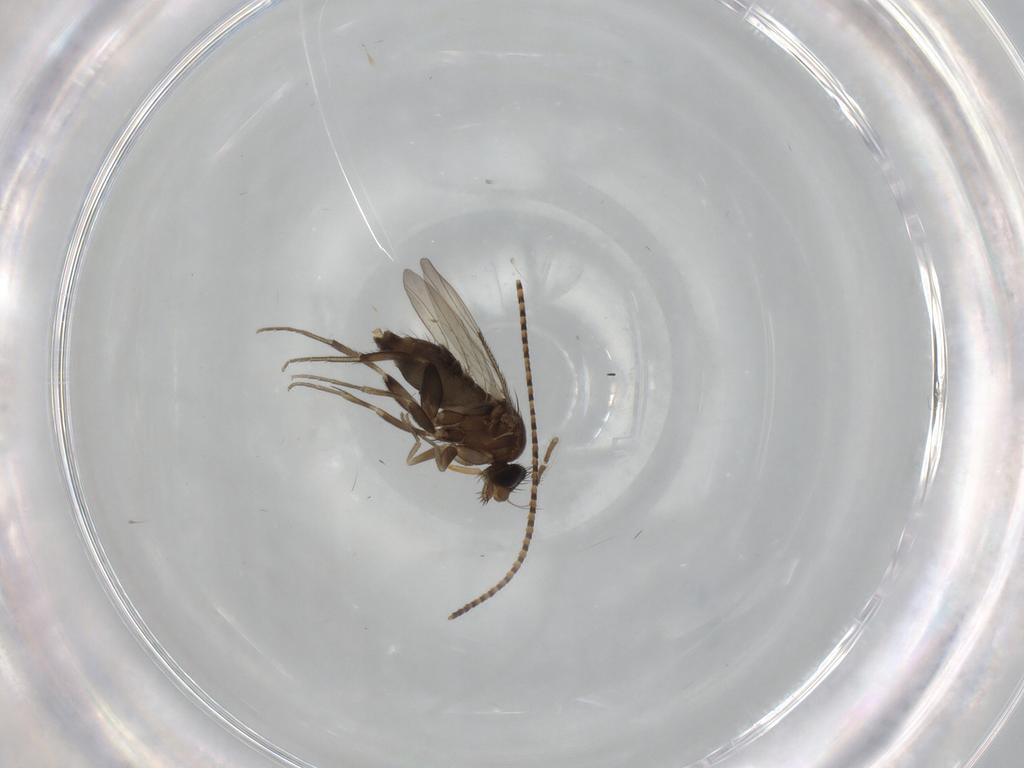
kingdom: Animalia
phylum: Arthropoda
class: Insecta
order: Diptera
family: Phoridae
